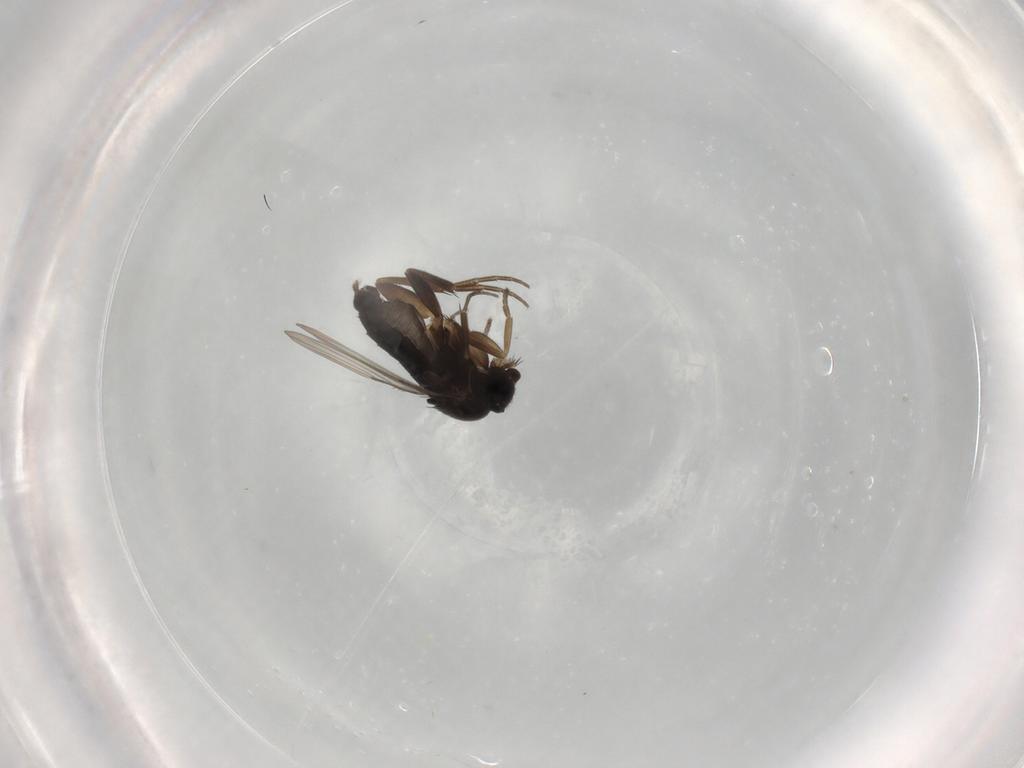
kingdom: Animalia
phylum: Arthropoda
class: Insecta
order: Diptera
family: Phoridae
